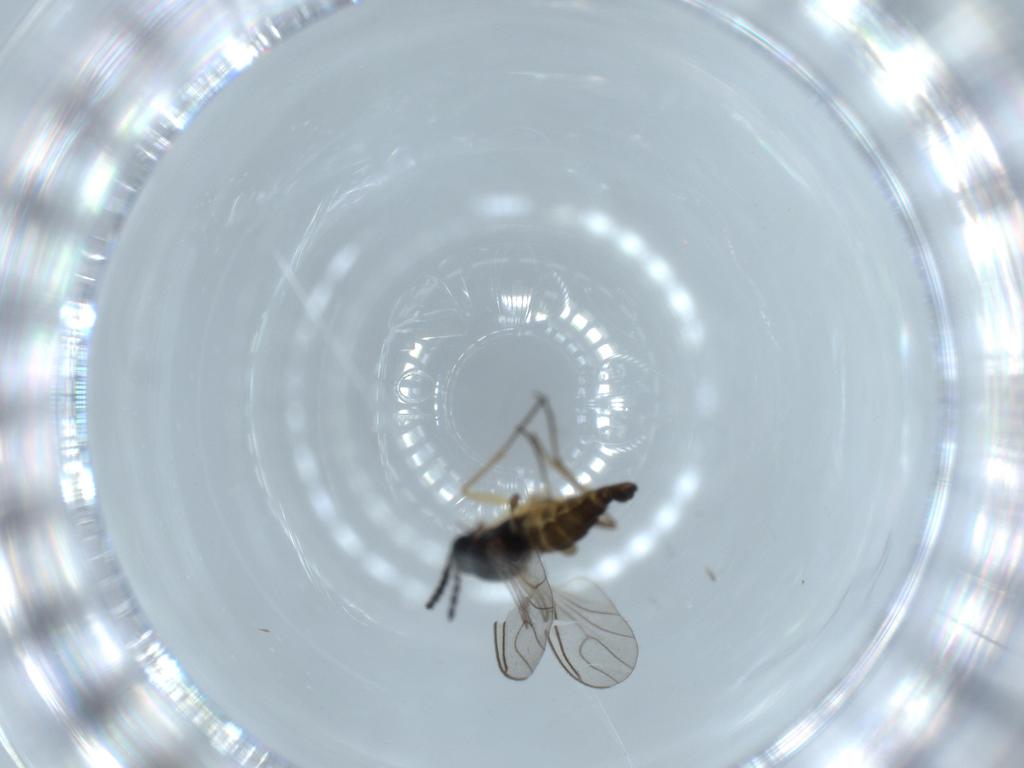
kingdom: Animalia
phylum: Arthropoda
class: Insecta
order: Diptera
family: Sciaridae
